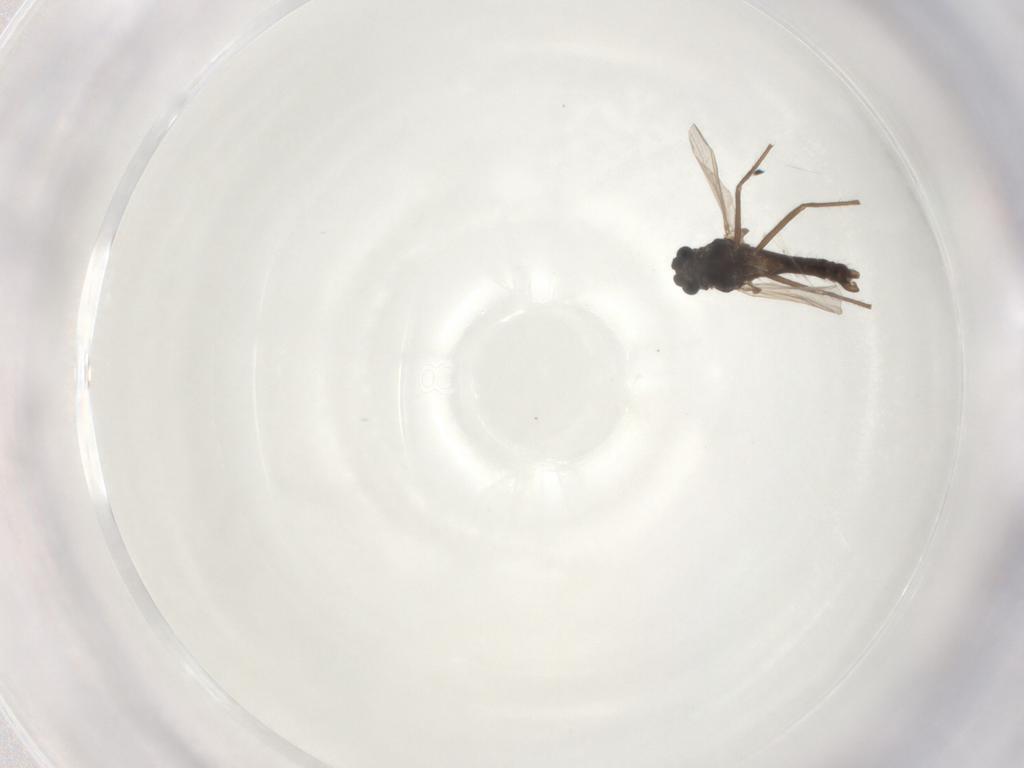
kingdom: Animalia
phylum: Arthropoda
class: Insecta
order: Diptera
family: Chironomidae
